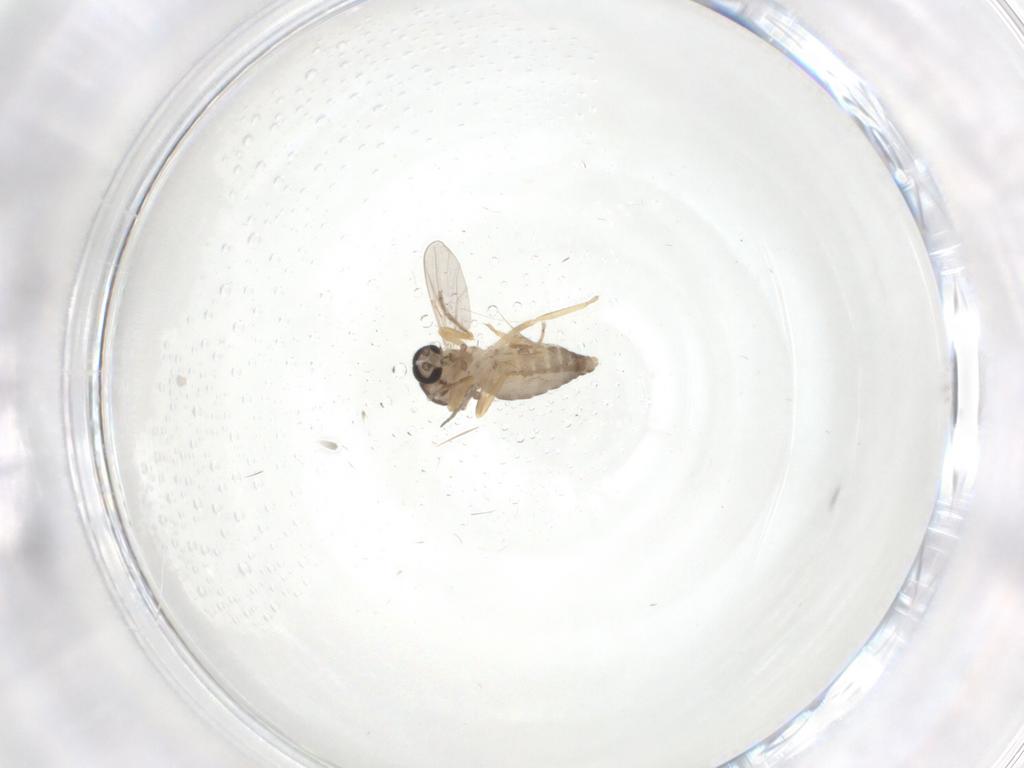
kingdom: Animalia
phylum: Arthropoda
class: Insecta
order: Diptera
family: Ceratopogonidae
